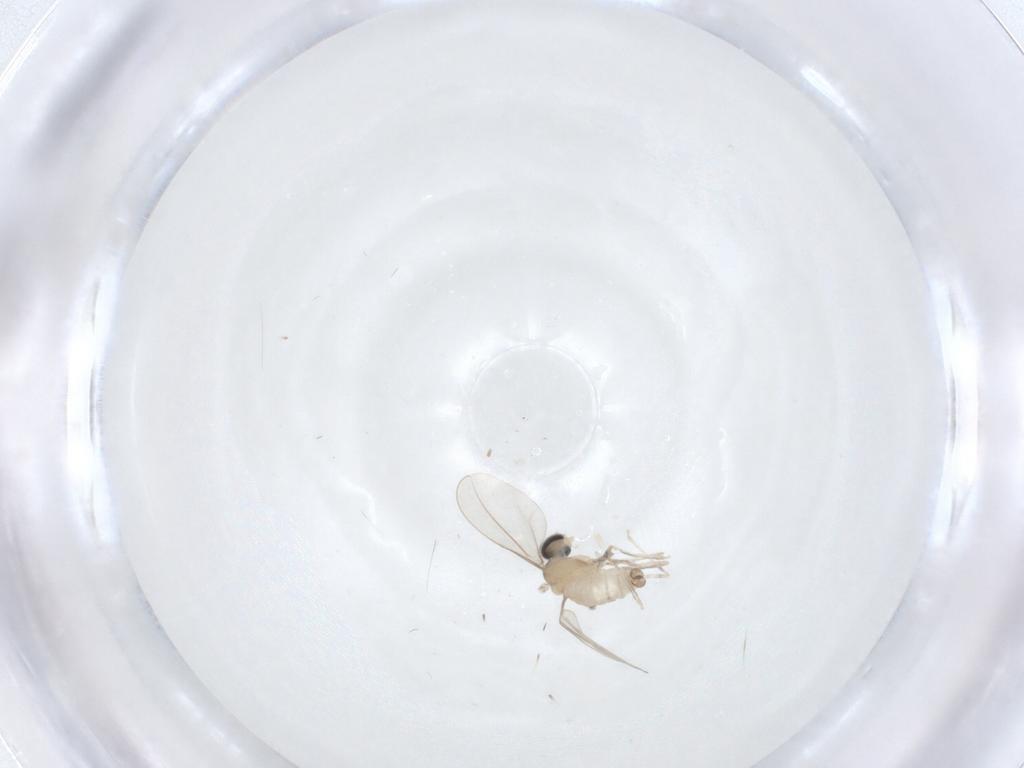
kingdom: Animalia
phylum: Arthropoda
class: Insecta
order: Diptera
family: Cecidomyiidae
